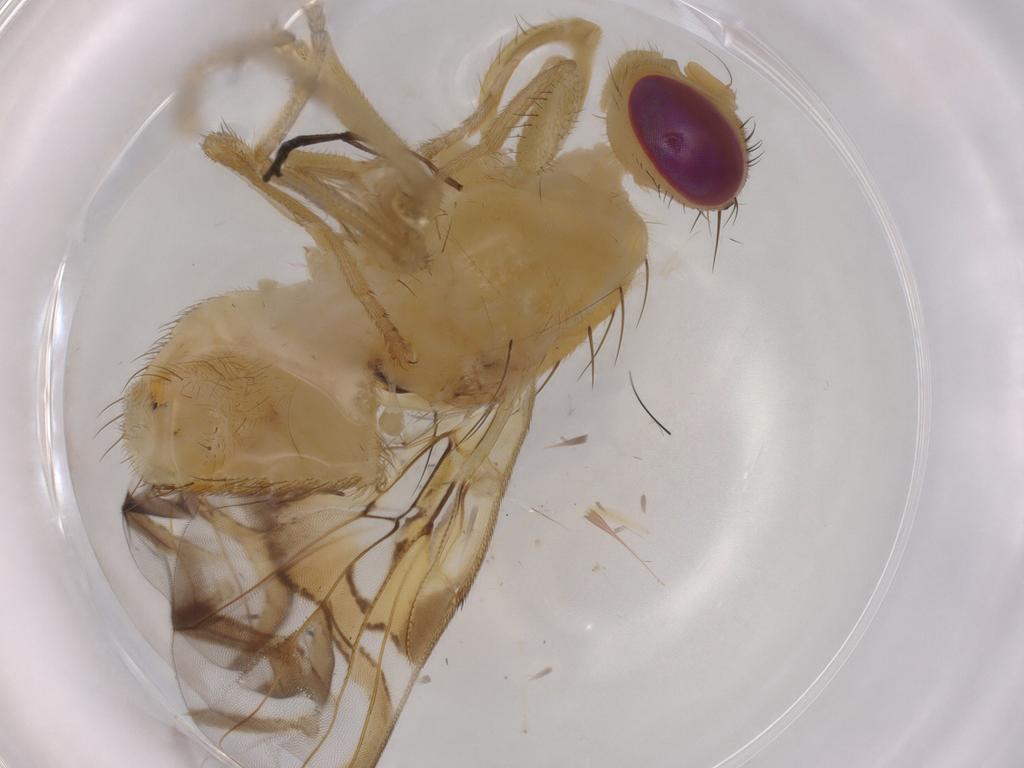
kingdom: Animalia
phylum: Arthropoda
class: Insecta
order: Diptera
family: Tephritidae
